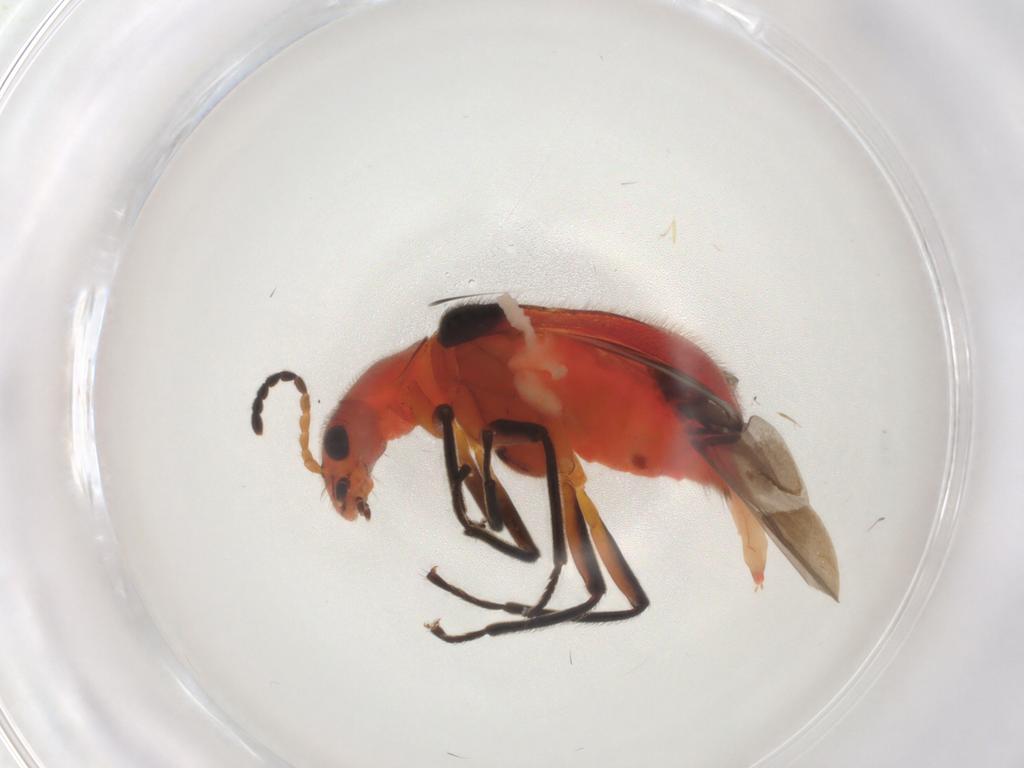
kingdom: Animalia
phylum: Arthropoda
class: Insecta
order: Coleoptera
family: Melyridae
